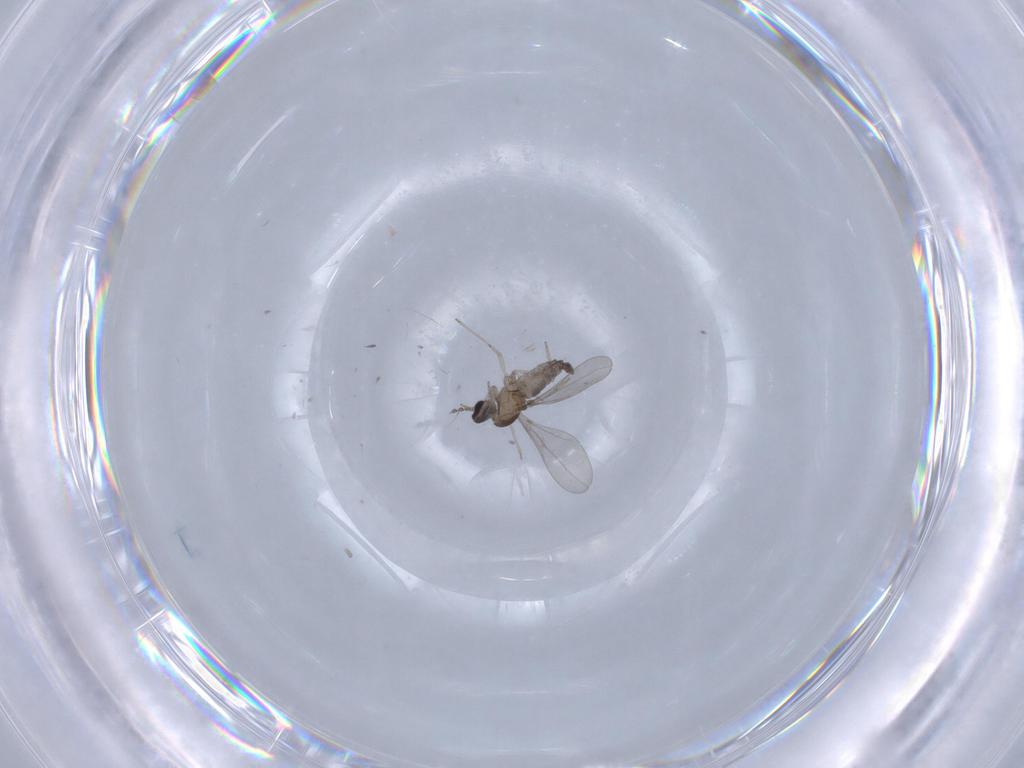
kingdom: Animalia
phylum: Arthropoda
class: Insecta
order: Diptera
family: Cecidomyiidae
